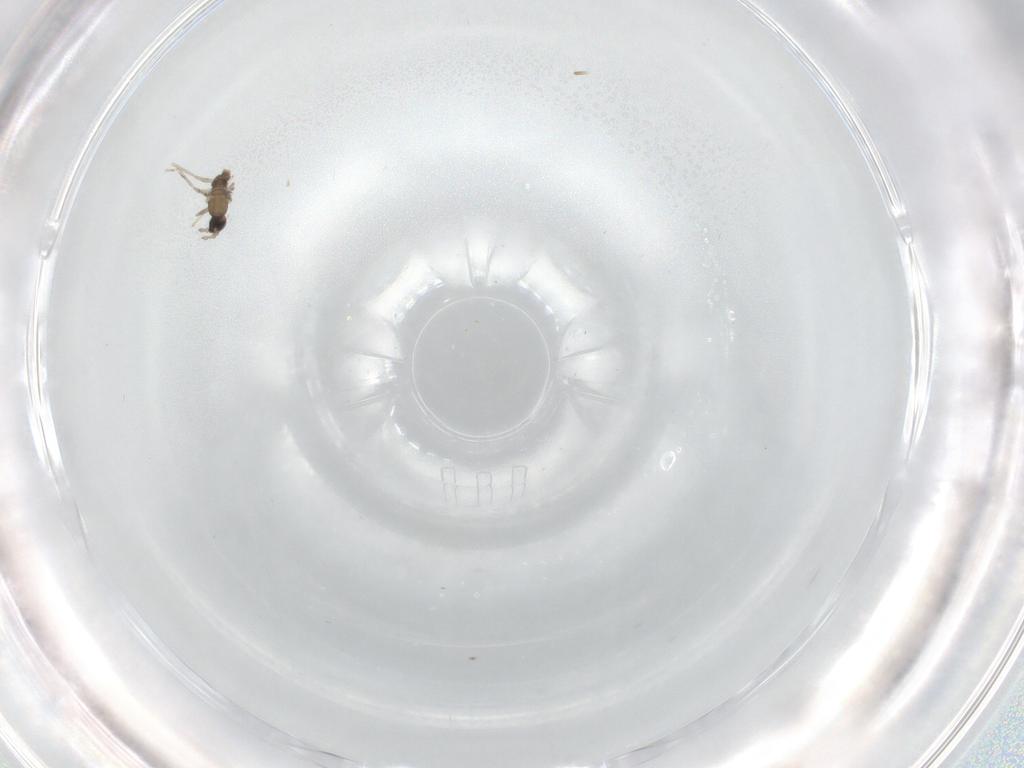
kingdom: Animalia
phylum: Arthropoda
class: Insecta
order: Diptera
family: Cecidomyiidae
